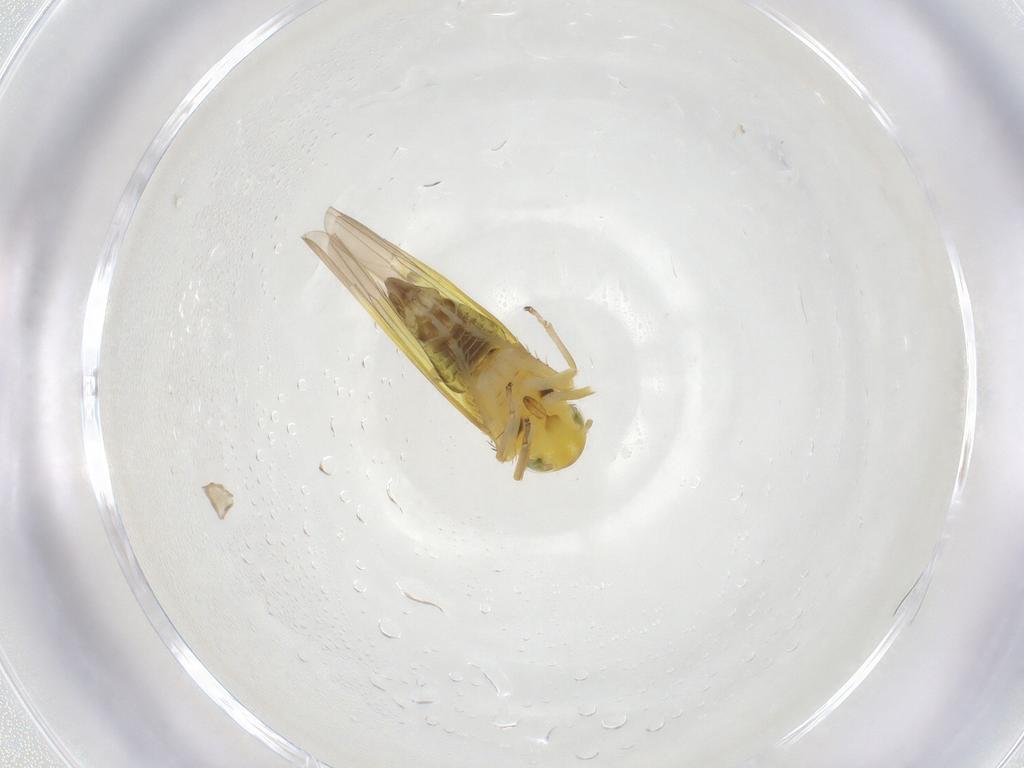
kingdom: Animalia
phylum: Arthropoda
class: Insecta
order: Hemiptera
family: Cicadellidae
